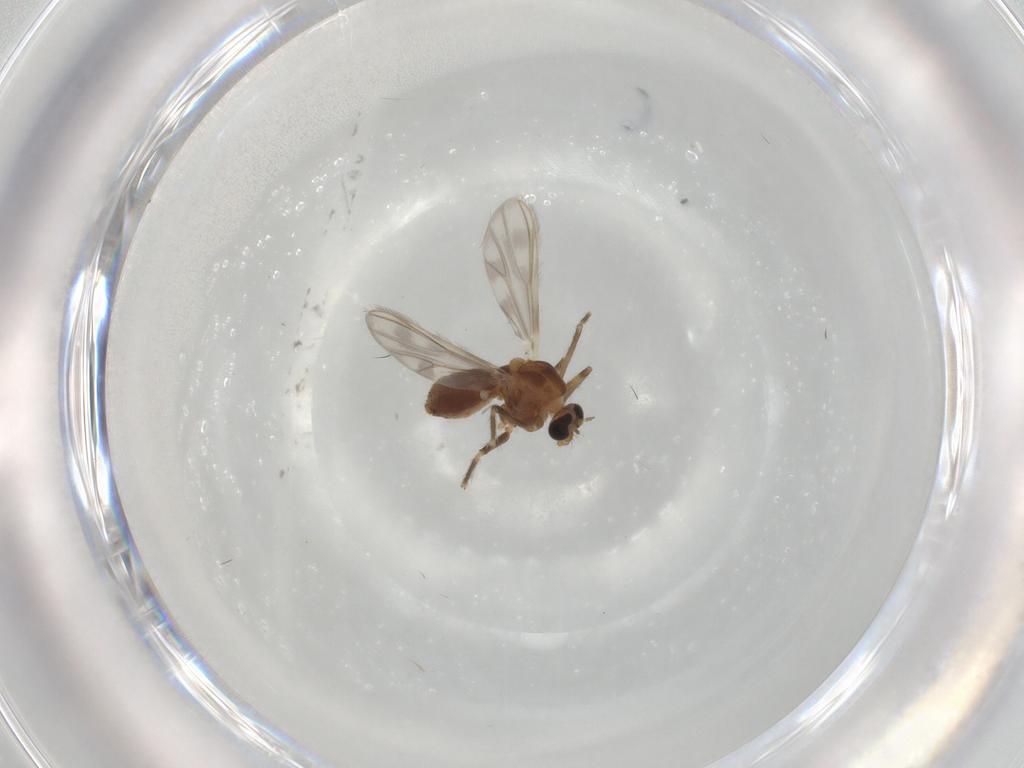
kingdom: Animalia
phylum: Arthropoda
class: Insecta
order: Diptera
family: Chironomidae
